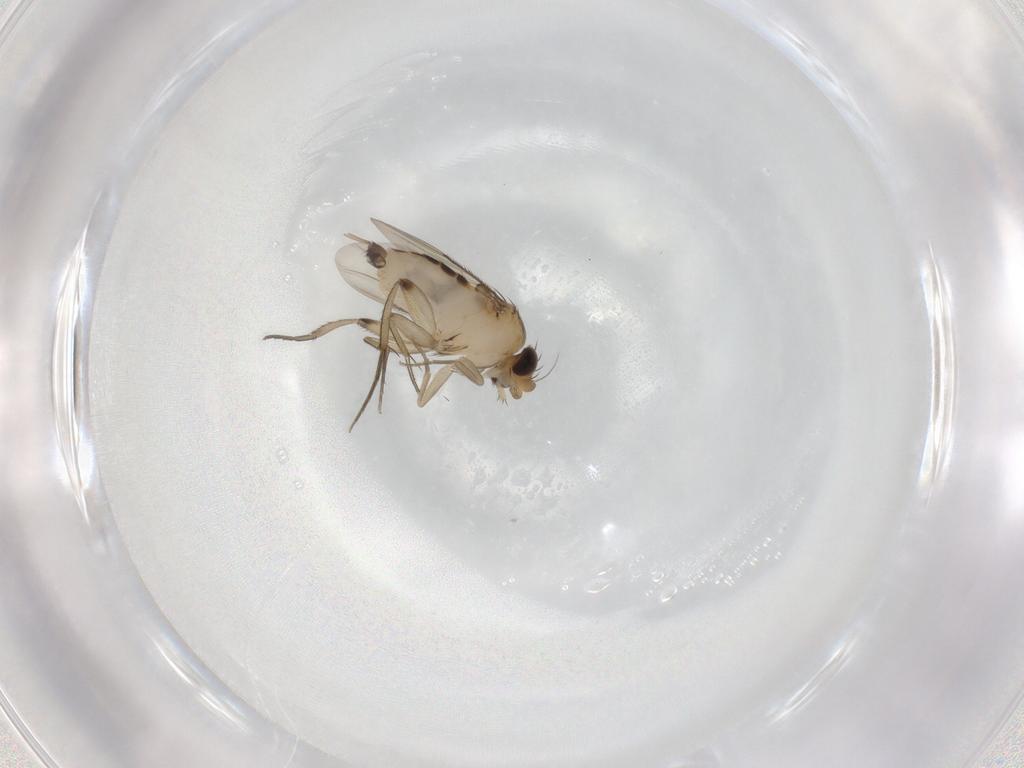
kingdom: Animalia
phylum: Arthropoda
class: Insecta
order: Diptera
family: Phoridae
